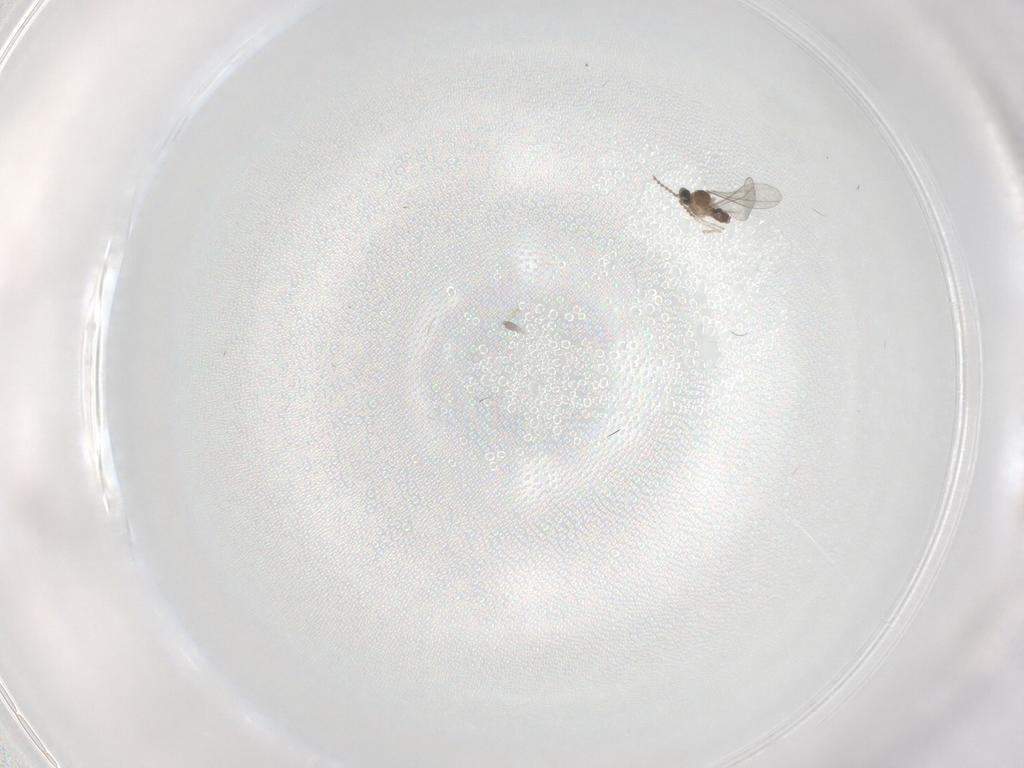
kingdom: Animalia
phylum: Arthropoda
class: Insecta
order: Diptera
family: Cecidomyiidae
